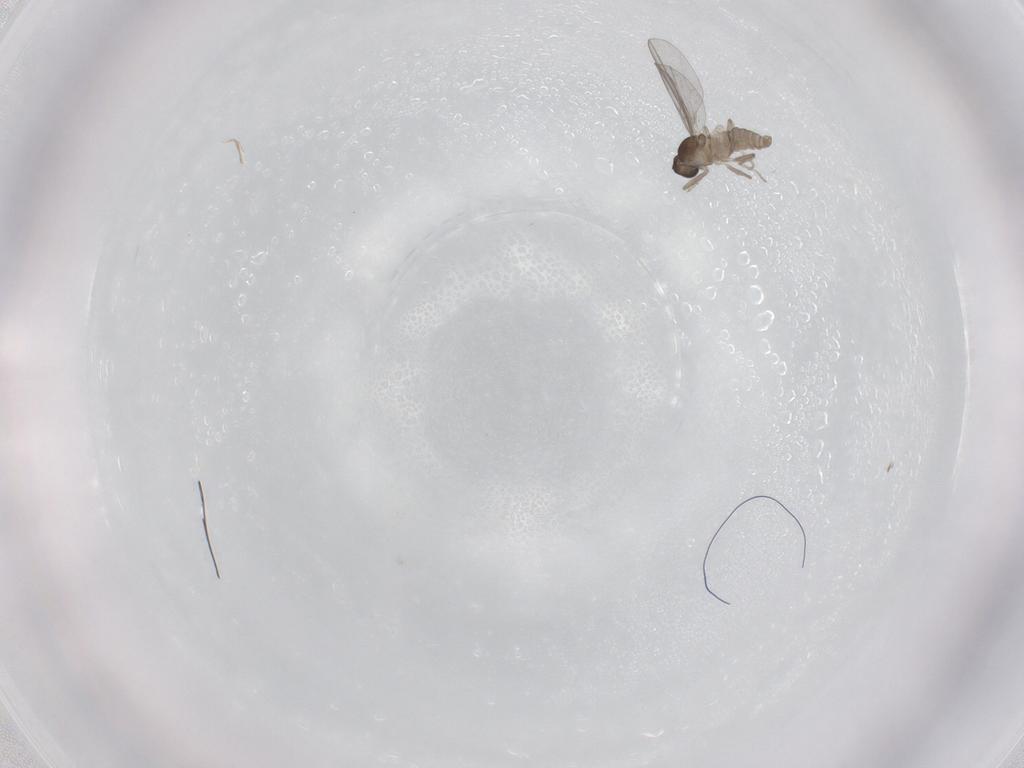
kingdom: Animalia
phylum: Arthropoda
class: Insecta
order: Diptera
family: Cecidomyiidae
